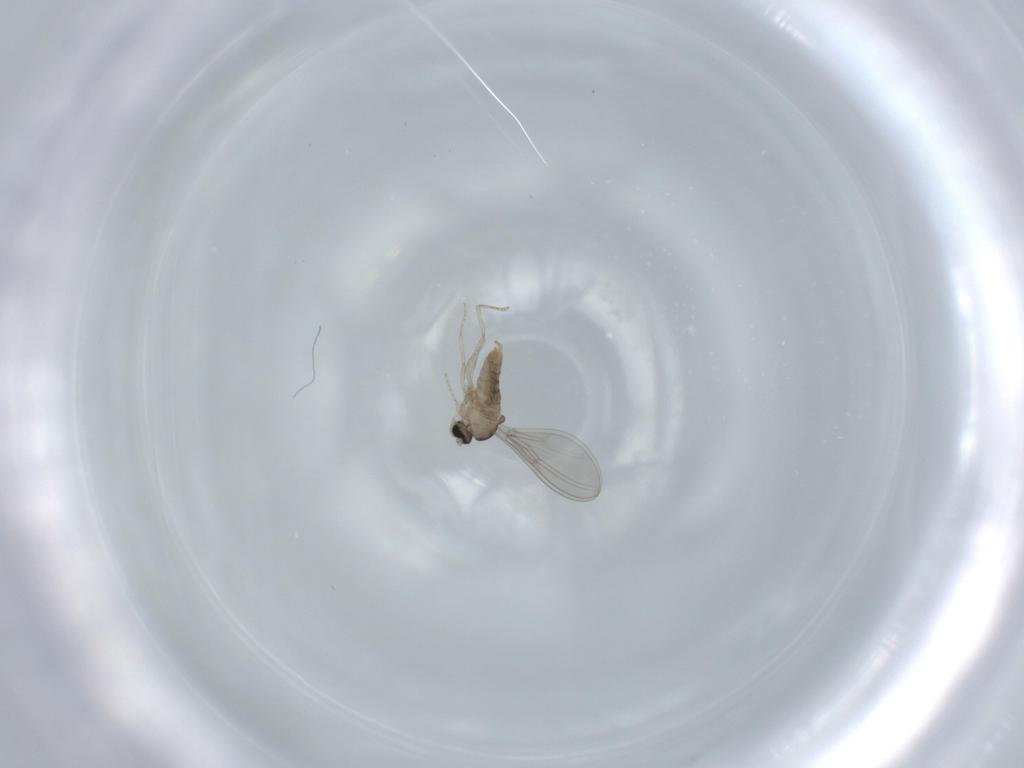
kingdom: Animalia
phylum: Arthropoda
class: Insecta
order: Diptera
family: Cecidomyiidae
